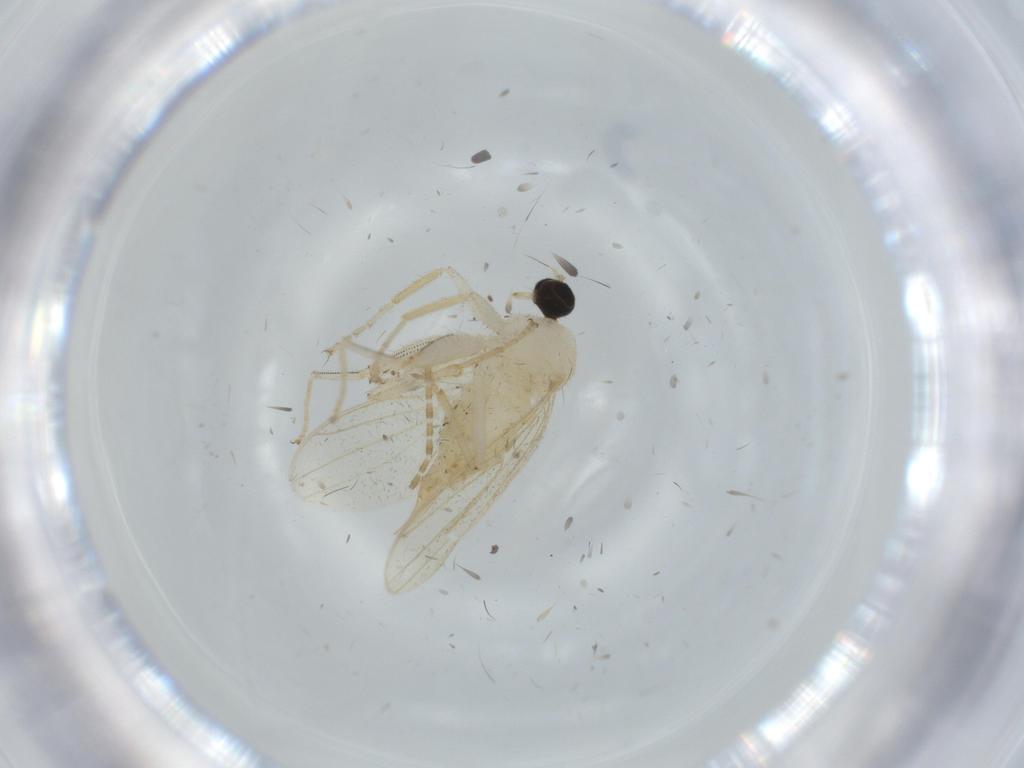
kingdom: Animalia
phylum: Arthropoda
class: Insecta
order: Diptera
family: Hybotidae
